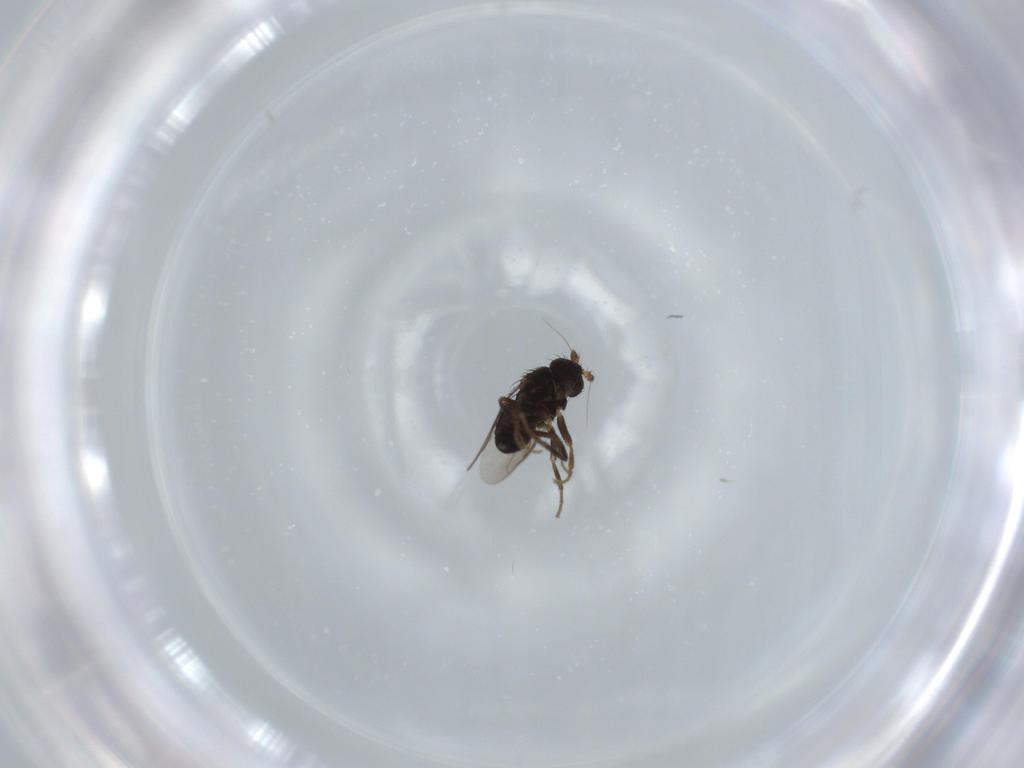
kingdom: Animalia
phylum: Arthropoda
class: Insecta
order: Diptera
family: Sphaeroceridae
